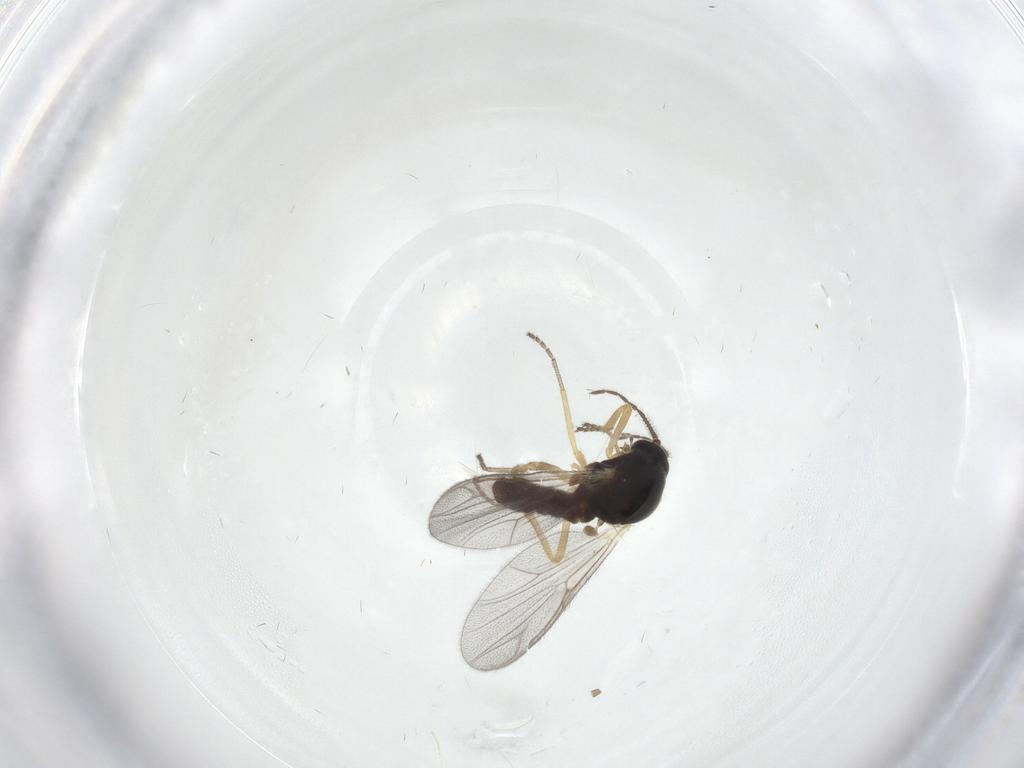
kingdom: Animalia
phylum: Arthropoda
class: Insecta
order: Diptera
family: Ceratopogonidae
